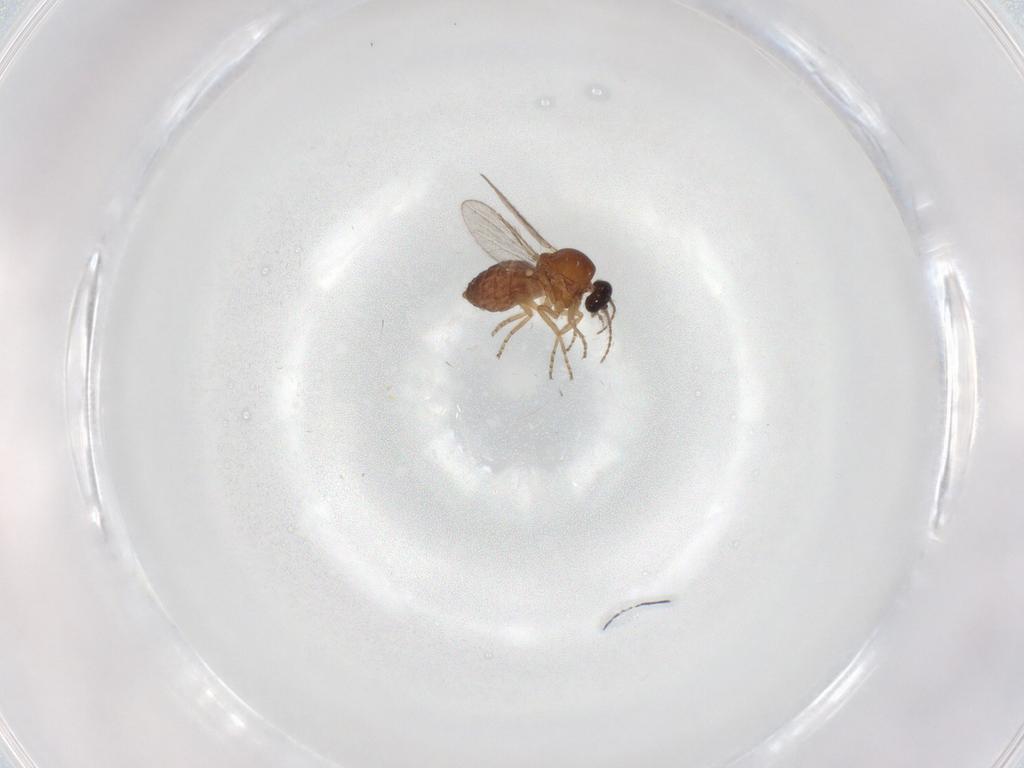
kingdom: Animalia
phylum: Arthropoda
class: Insecta
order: Diptera
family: Ceratopogonidae
